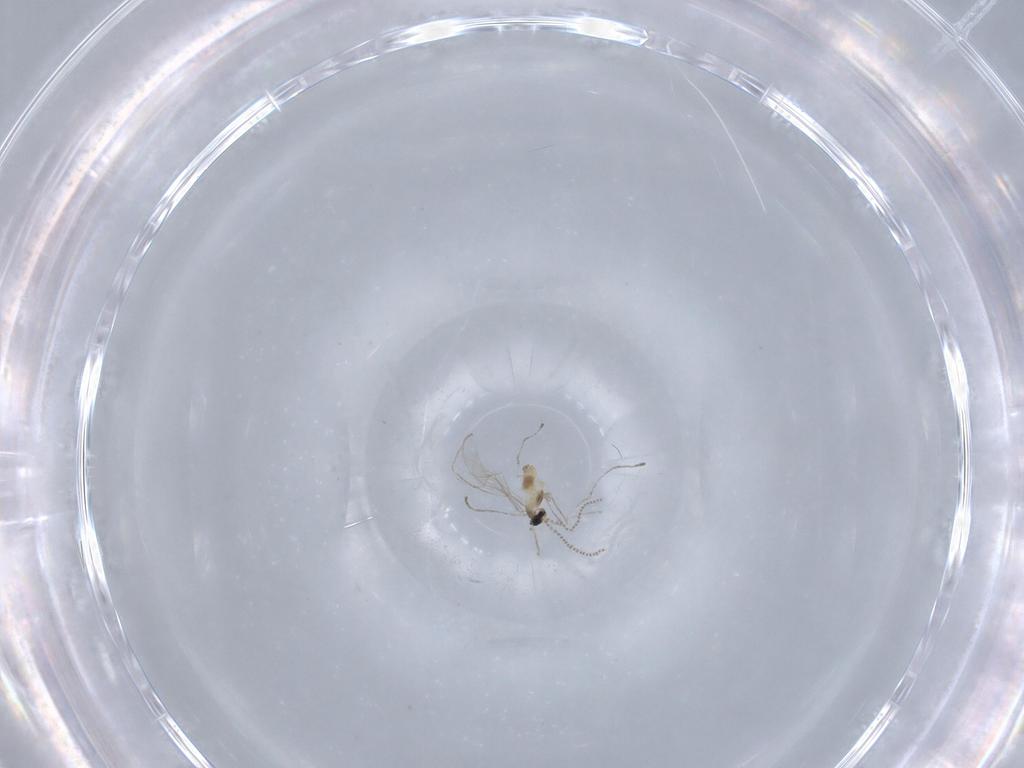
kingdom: Animalia
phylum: Arthropoda
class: Insecta
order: Diptera
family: Cecidomyiidae
